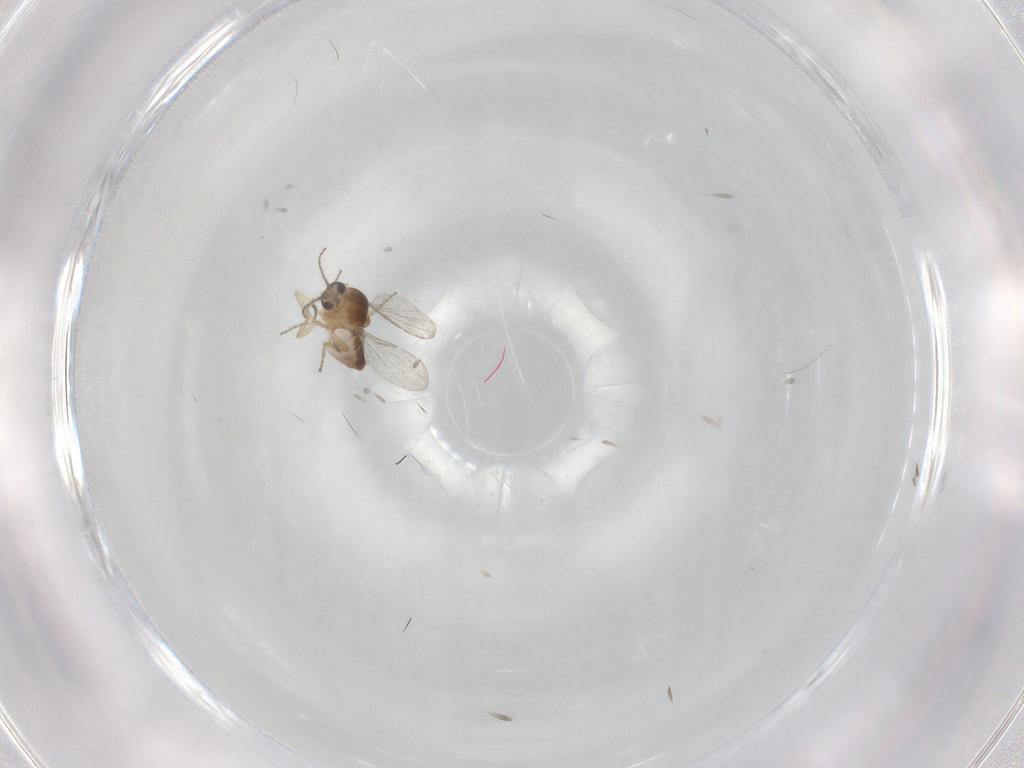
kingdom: Animalia
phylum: Arthropoda
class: Insecta
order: Diptera
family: Ceratopogonidae
